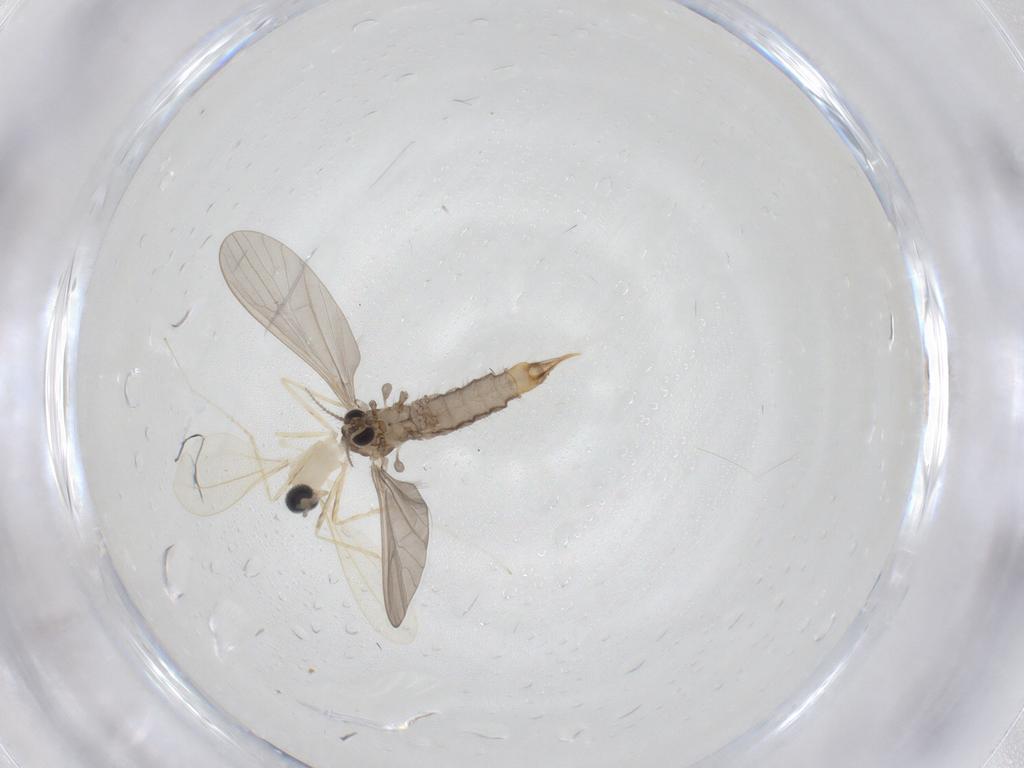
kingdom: Animalia
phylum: Arthropoda
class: Insecta
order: Diptera
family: Limoniidae
